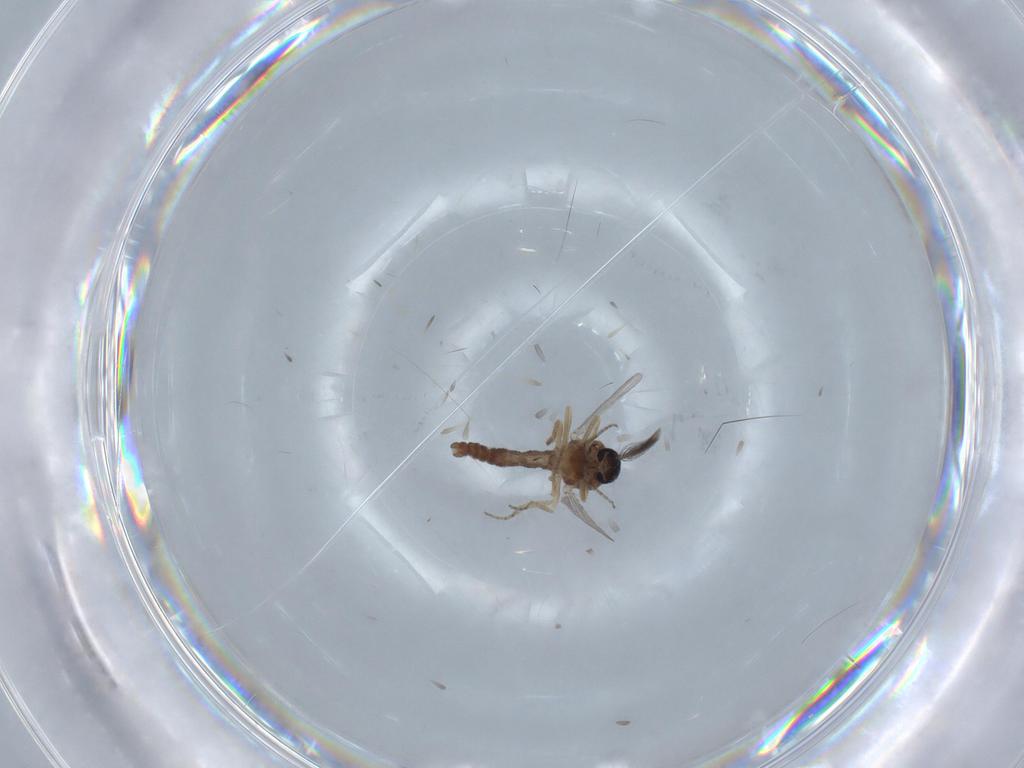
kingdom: Animalia
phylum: Arthropoda
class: Insecta
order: Diptera
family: Ceratopogonidae
